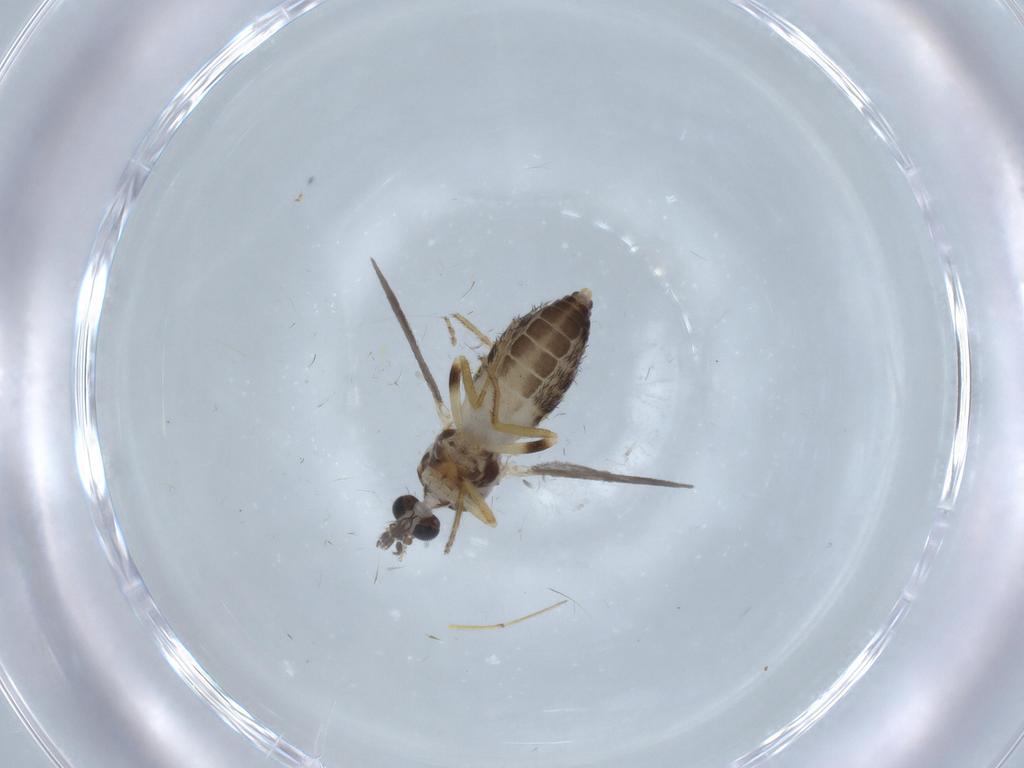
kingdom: Animalia
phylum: Arthropoda
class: Insecta
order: Diptera
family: Ceratopogonidae
